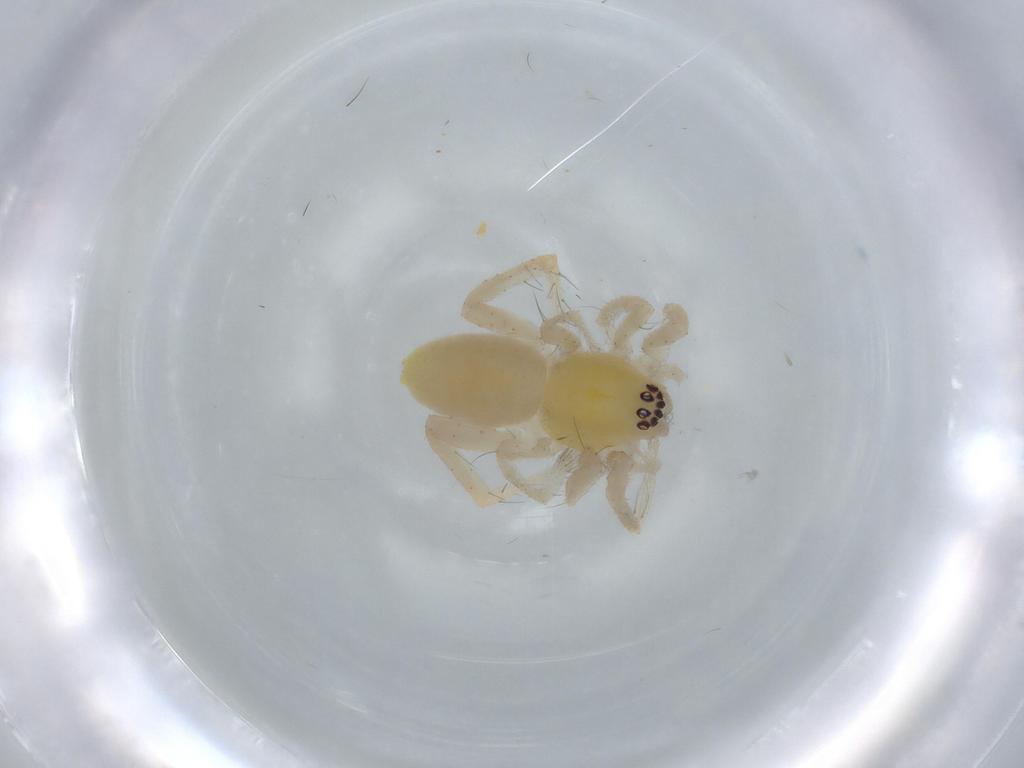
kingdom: Animalia
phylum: Arthropoda
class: Arachnida
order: Araneae
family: Anyphaenidae
